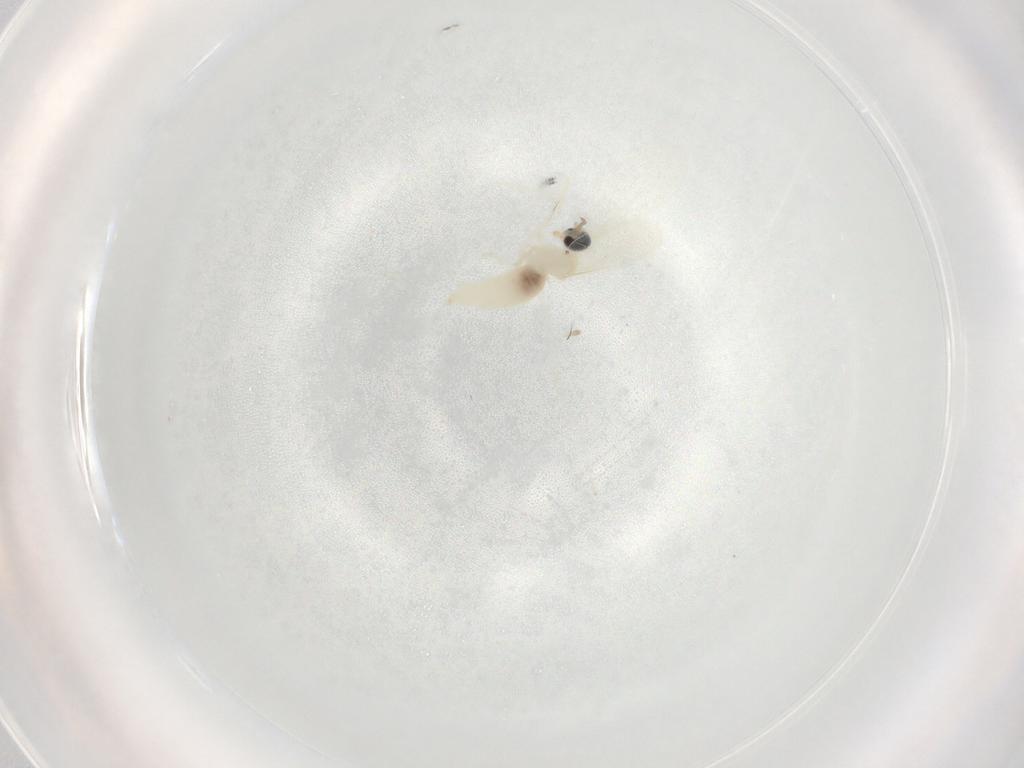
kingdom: Animalia
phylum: Arthropoda
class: Insecta
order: Diptera
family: Cecidomyiidae
